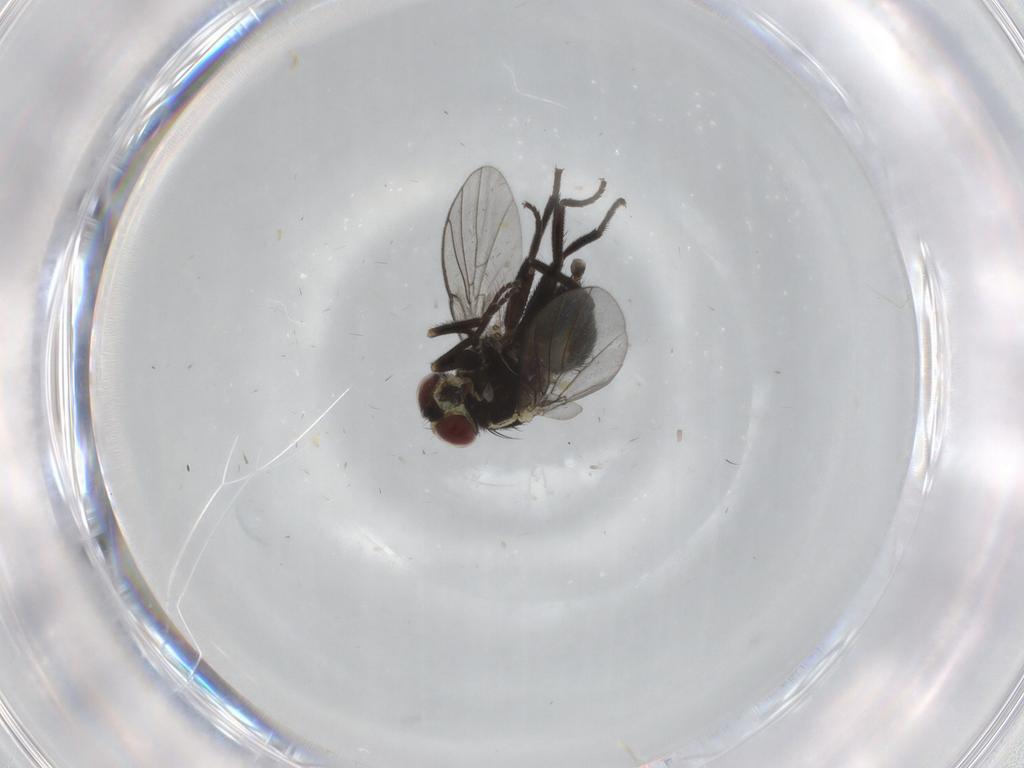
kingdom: Animalia
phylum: Arthropoda
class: Insecta
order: Diptera
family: Agromyzidae
